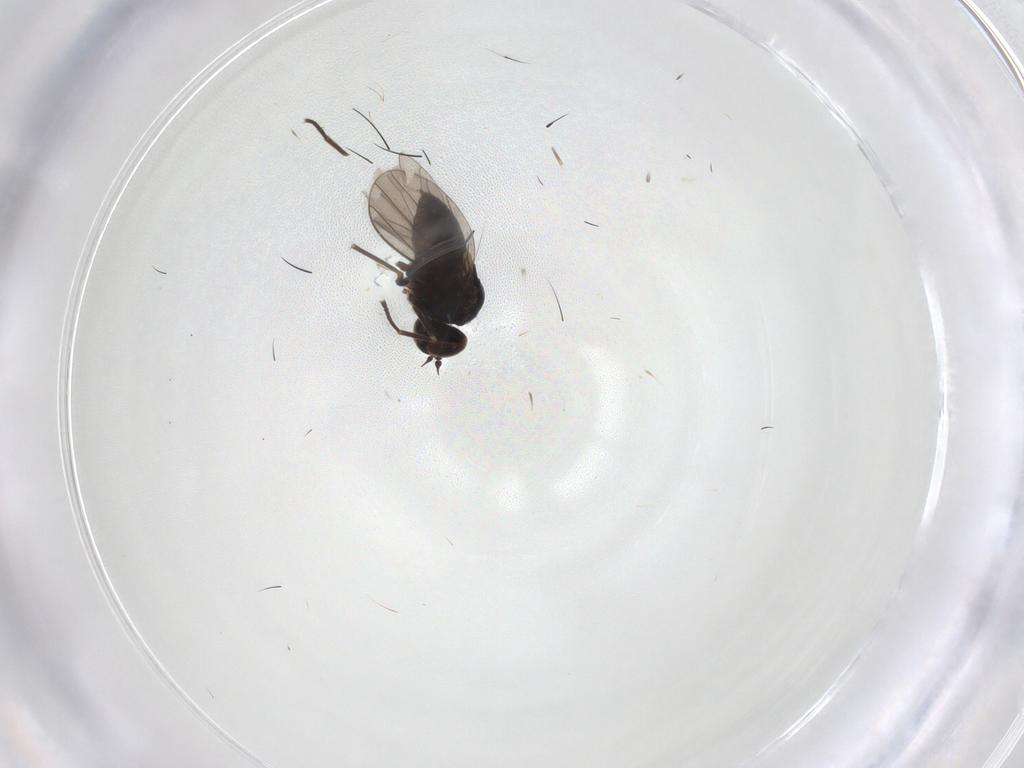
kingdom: Animalia
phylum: Arthropoda
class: Insecta
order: Diptera
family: Dolichopodidae
